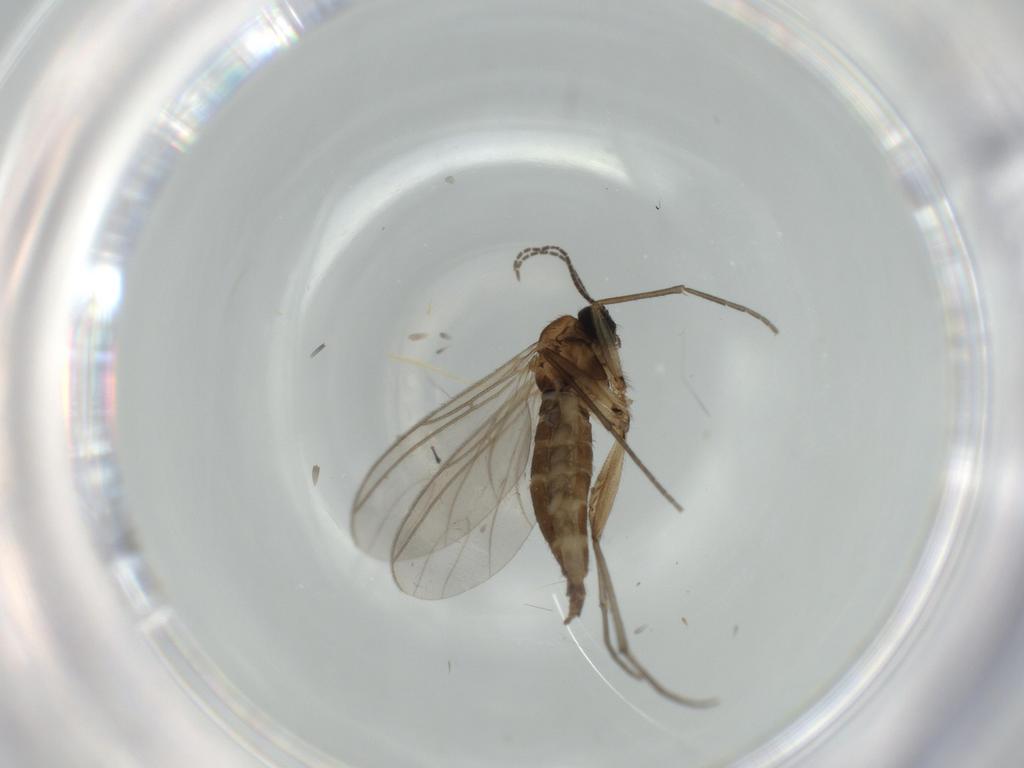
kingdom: Animalia
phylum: Arthropoda
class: Insecta
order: Diptera
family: Sciaridae
